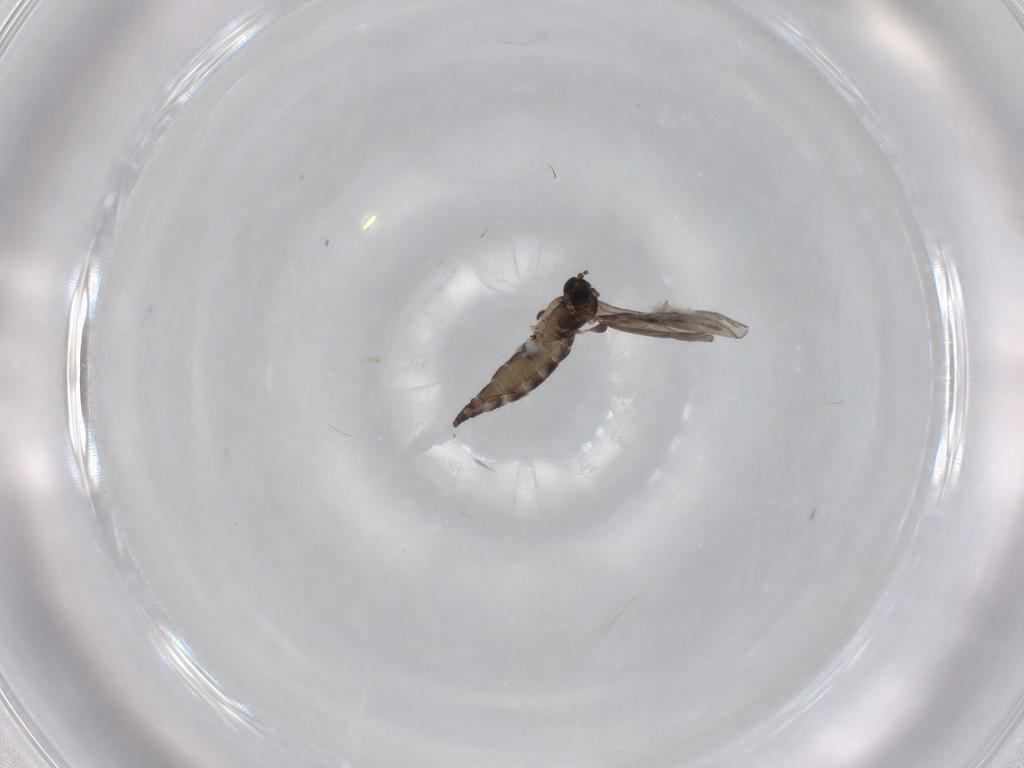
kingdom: Animalia
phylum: Arthropoda
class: Insecta
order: Diptera
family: Sciaridae
